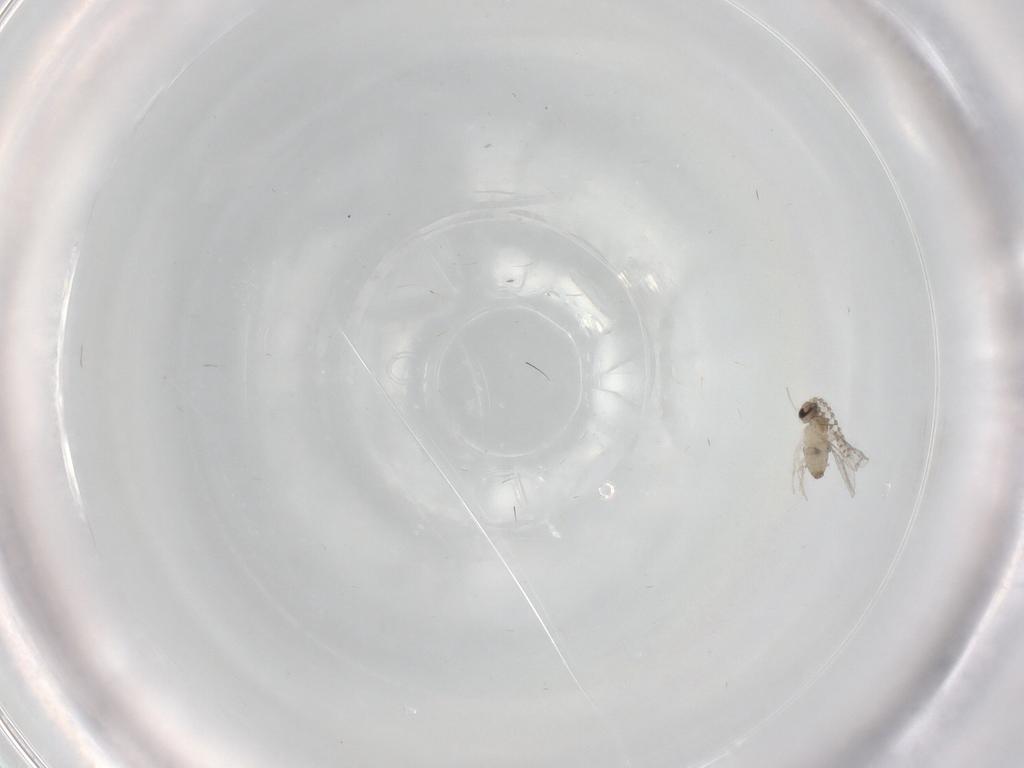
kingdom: Animalia
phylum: Arthropoda
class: Insecta
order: Diptera
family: Cecidomyiidae
